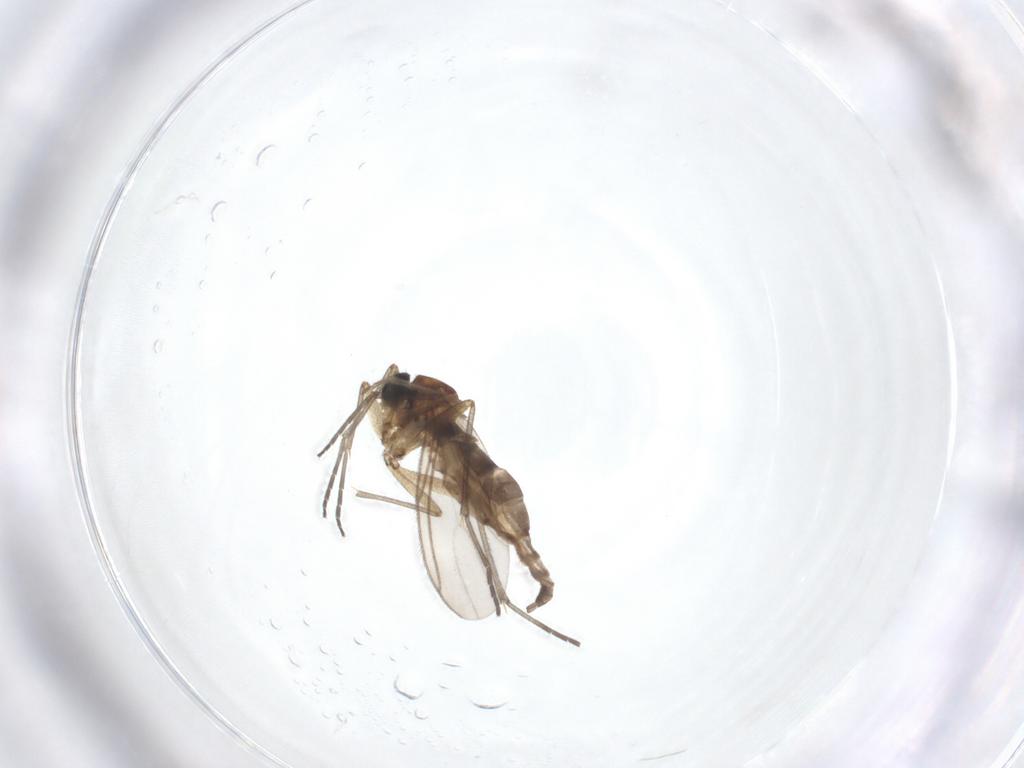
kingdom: Animalia
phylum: Arthropoda
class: Insecta
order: Diptera
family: Sciaridae
